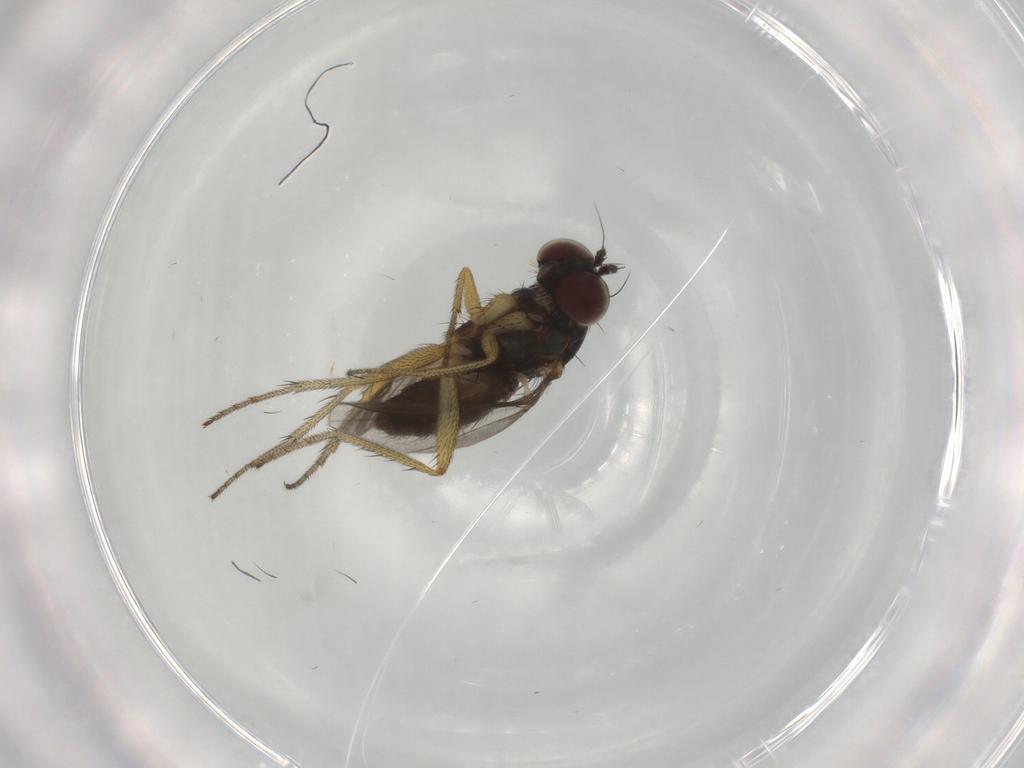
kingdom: Animalia
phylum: Arthropoda
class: Insecta
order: Diptera
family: Dolichopodidae
